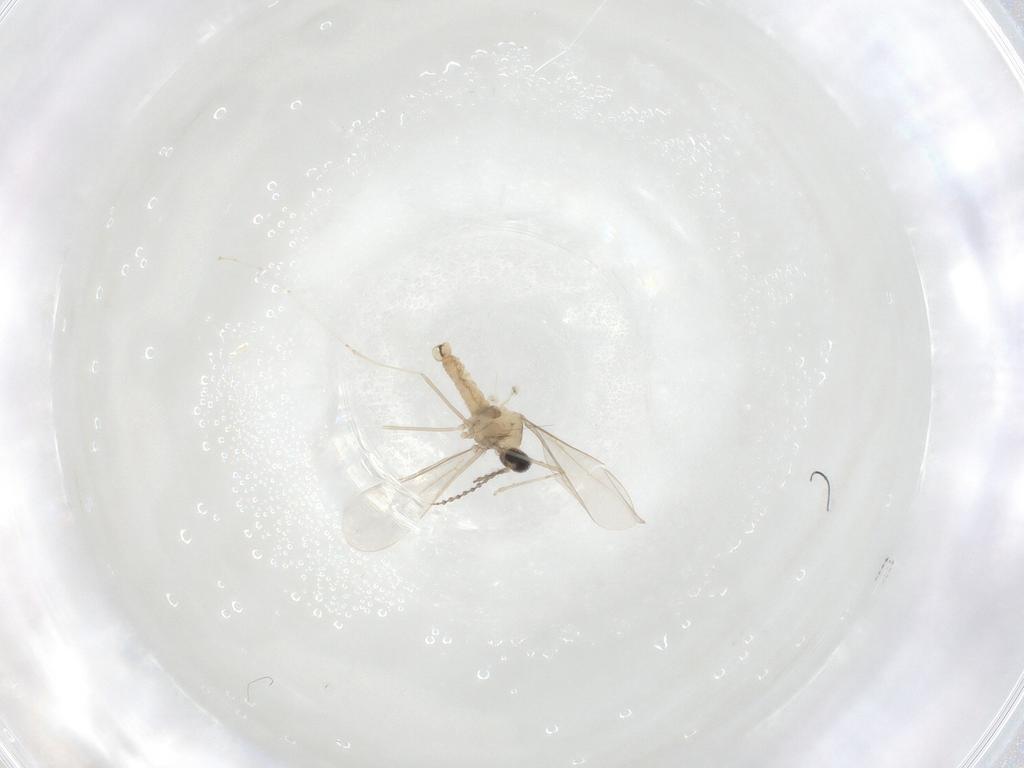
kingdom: Animalia
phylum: Arthropoda
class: Insecta
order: Diptera
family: Cecidomyiidae
